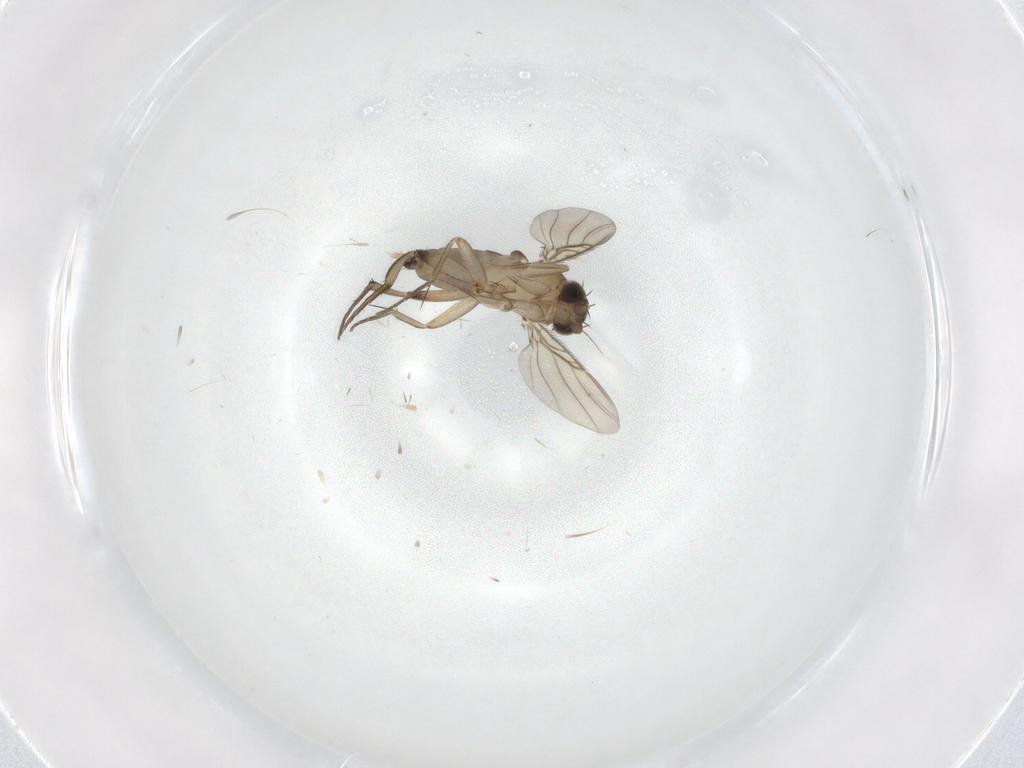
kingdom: Animalia
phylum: Arthropoda
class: Insecta
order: Diptera
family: Phoridae
